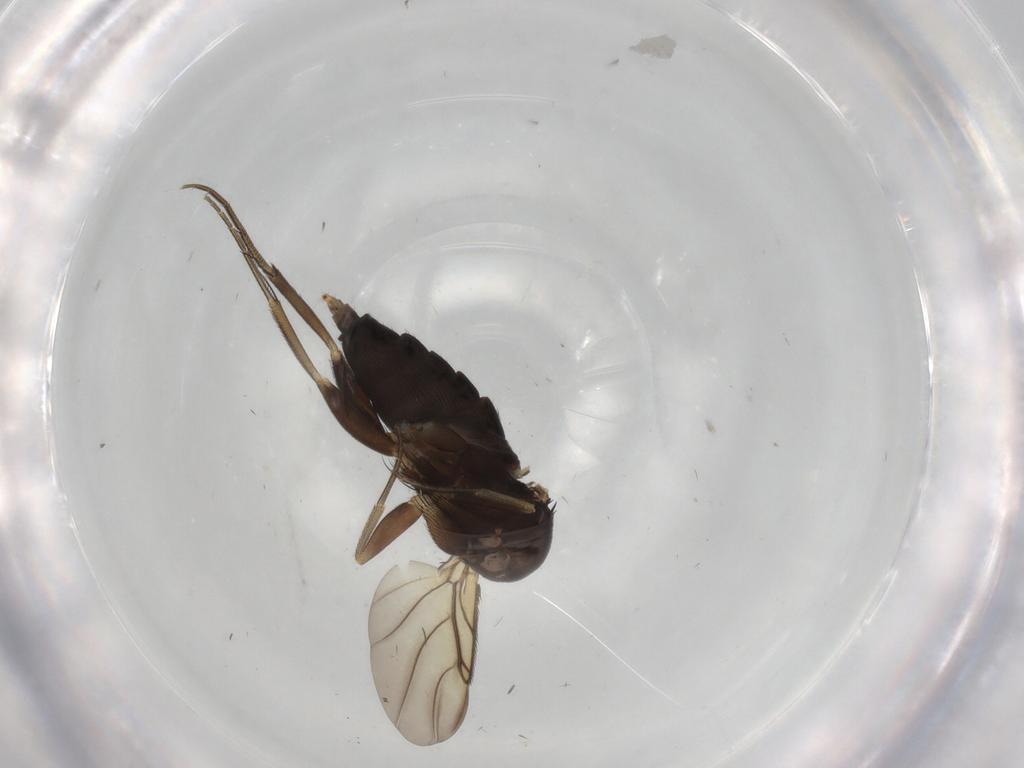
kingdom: Animalia
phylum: Arthropoda
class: Insecta
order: Diptera
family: Phoridae
